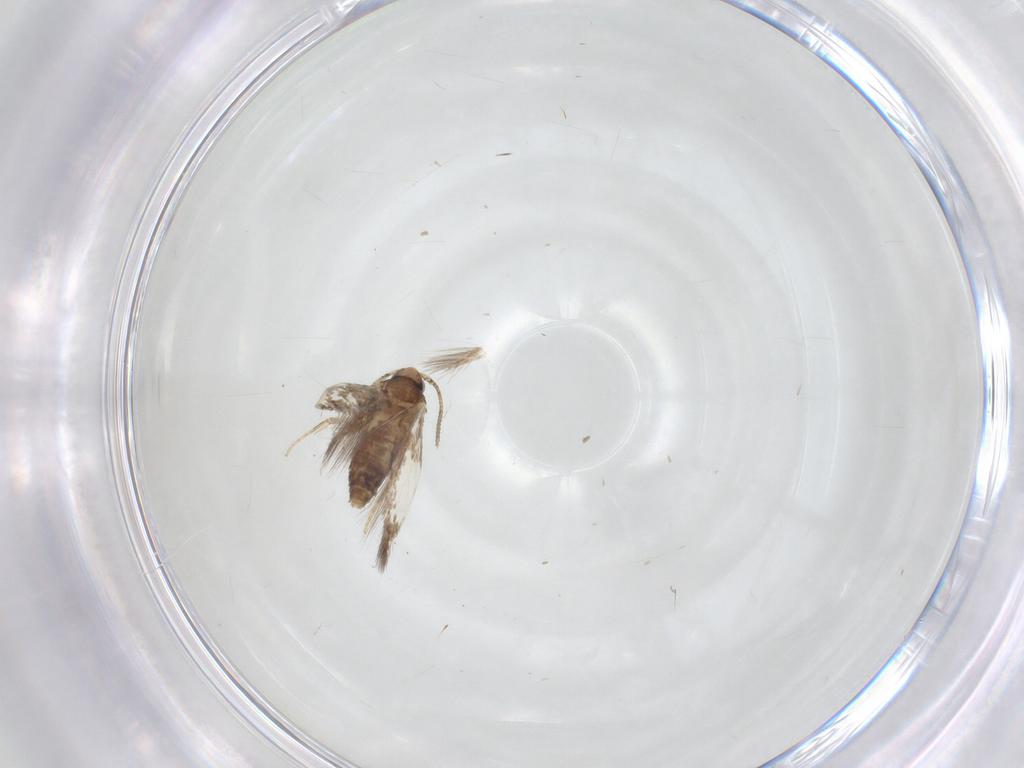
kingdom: Animalia
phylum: Arthropoda
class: Insecta
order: Lepidoptera
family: Nepticulidae
